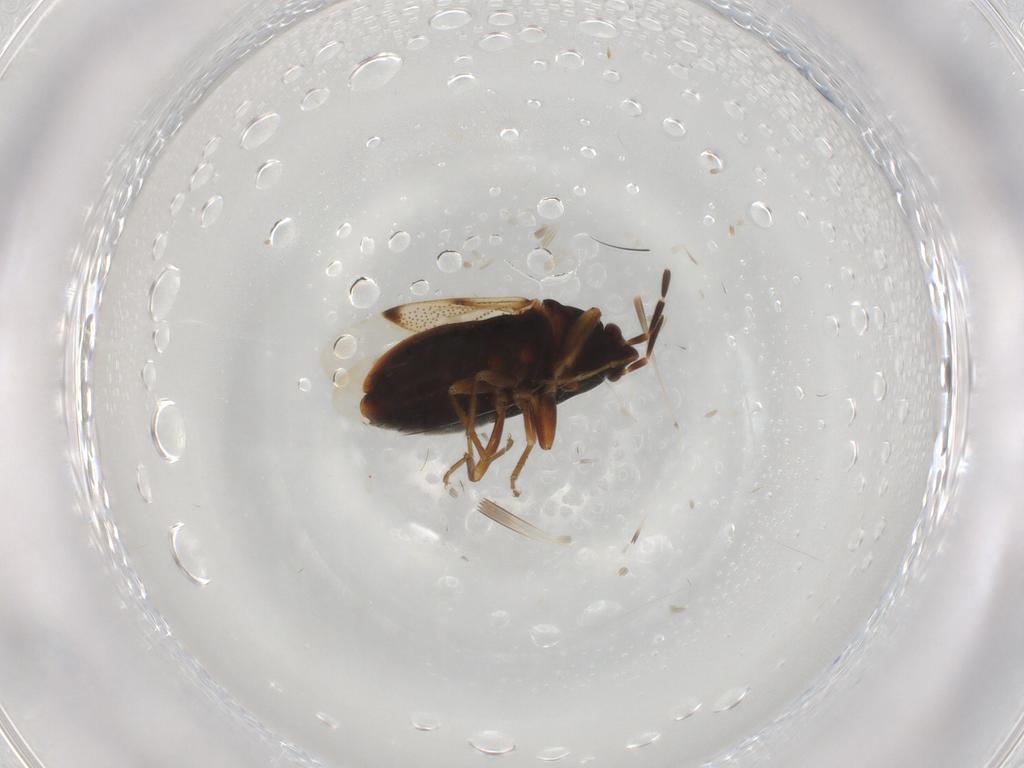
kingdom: Animalia
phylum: Arthropoda
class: Insecta
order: Hemiptera
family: Rhyparochromidae
